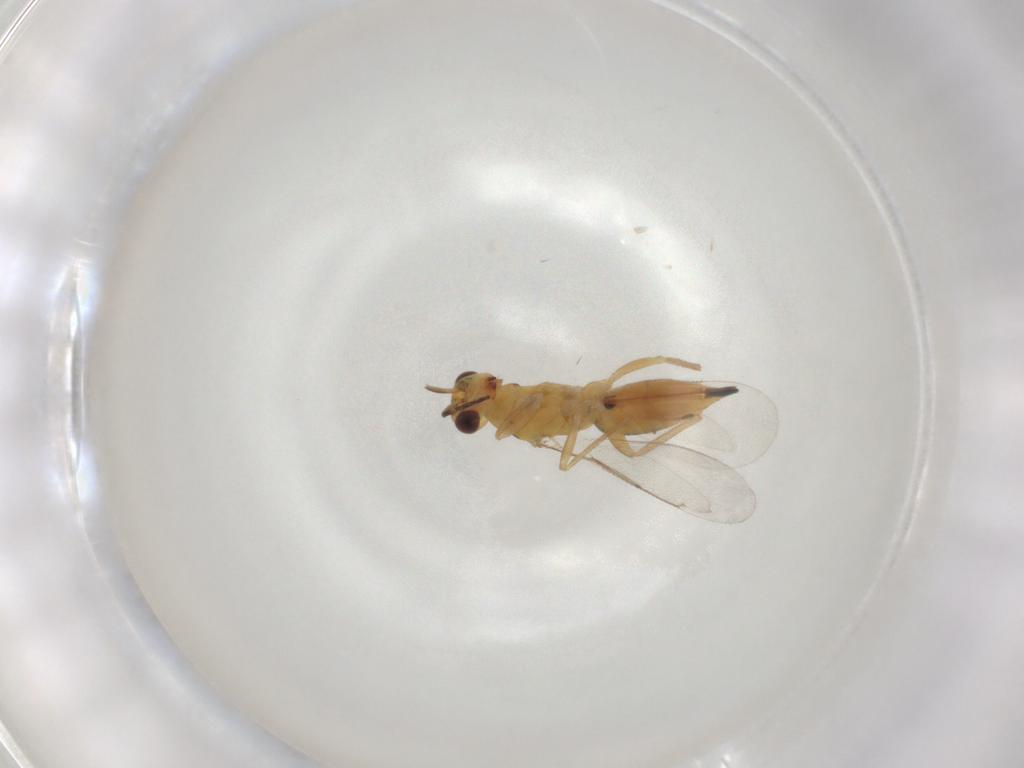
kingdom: Animalia
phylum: Arthropoda
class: Insecta
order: Hymenoptera
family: Eulophidae
